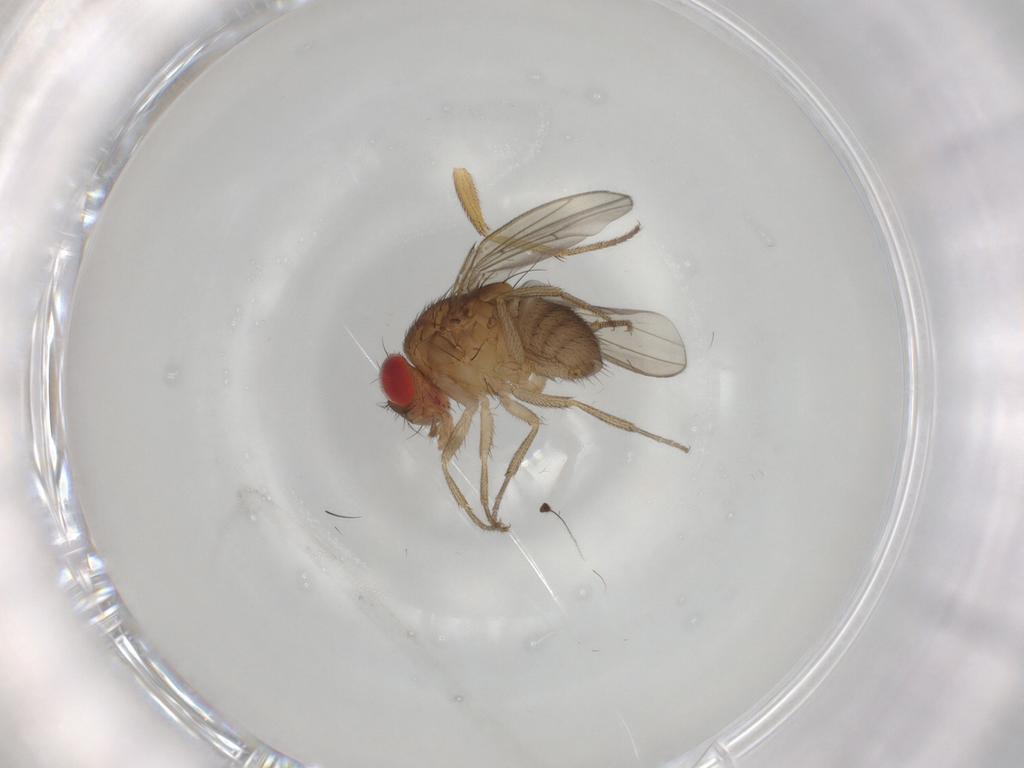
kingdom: Animalia
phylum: Arthropoda
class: Insecta
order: Diptera
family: Drosophilidae
